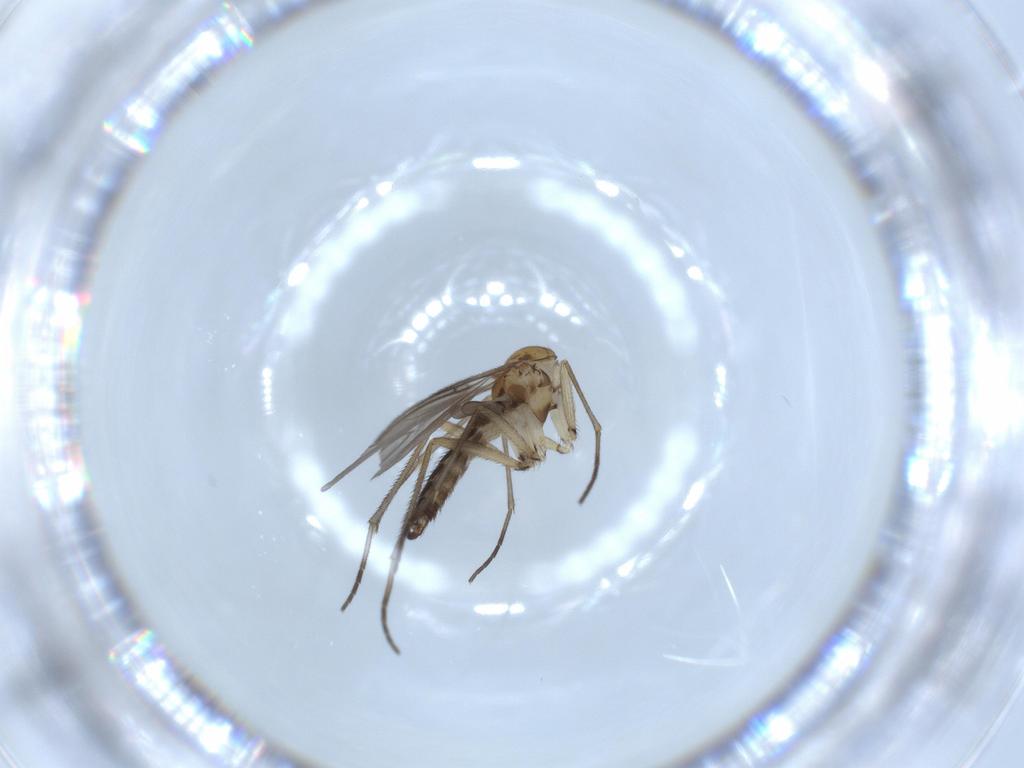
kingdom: Animalia
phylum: Arthropoda
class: Insecta
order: Diptera
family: Sciaridae
